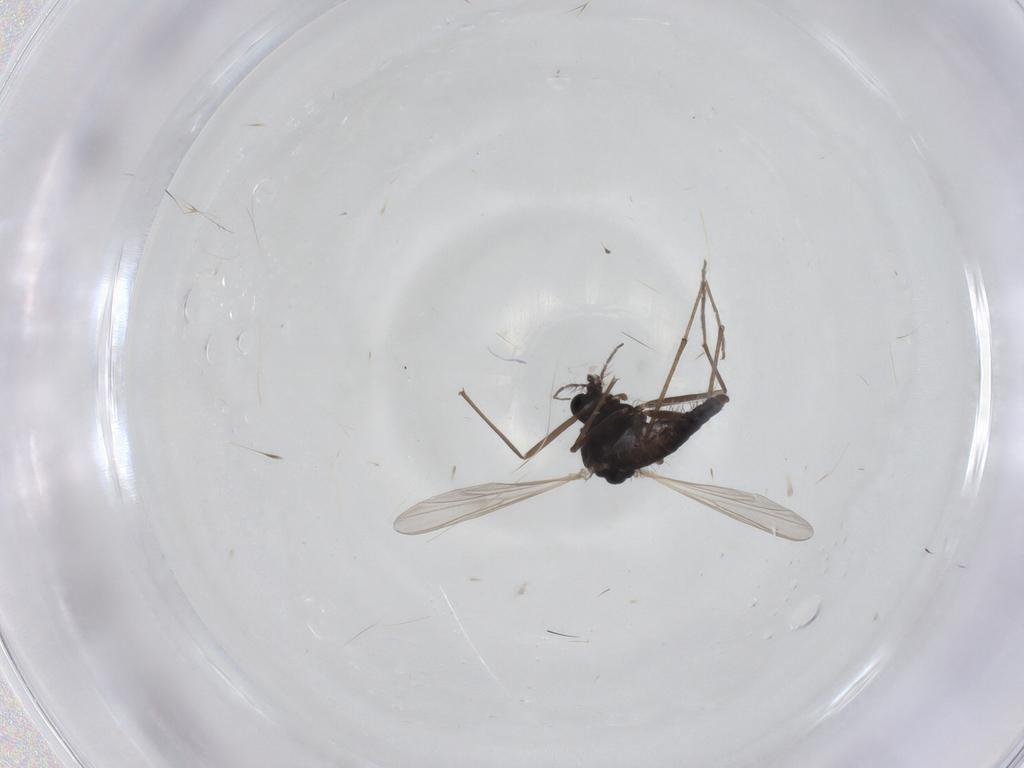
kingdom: Animalia
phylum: Arthropoda
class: Insecta
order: Diptera
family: Chironomidae
